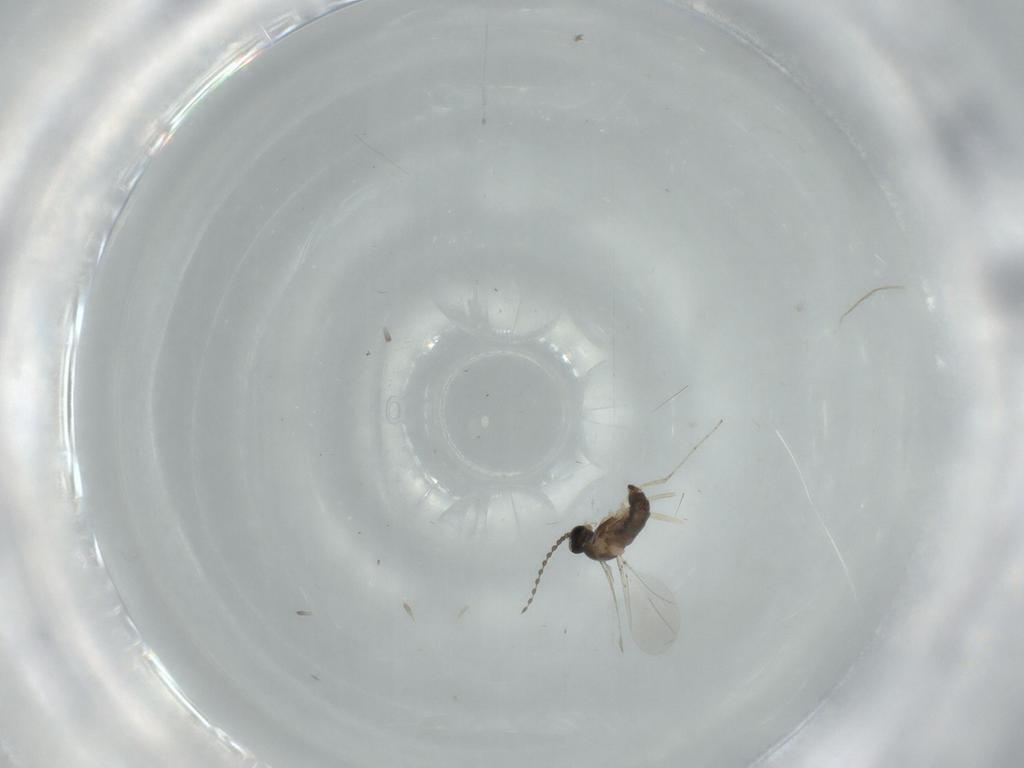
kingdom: Animalia
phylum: Arthropoda
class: Insecta
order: Diptera
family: Cecidomyiidae
